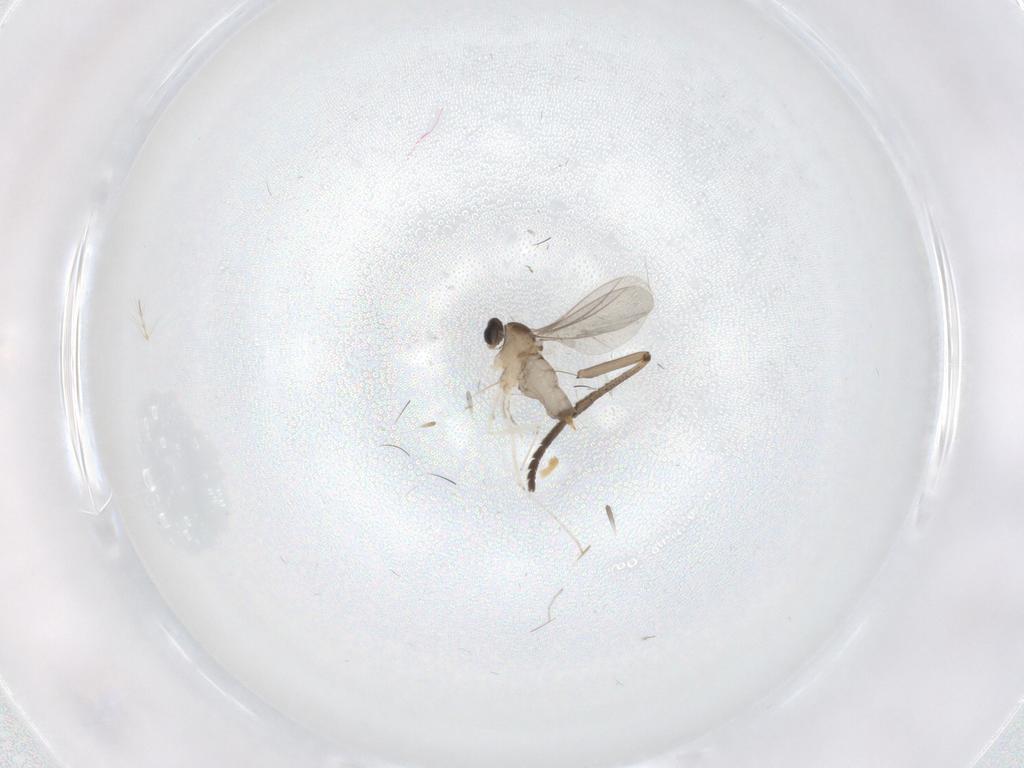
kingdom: Animalia
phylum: Arthropoda
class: Insecta
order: Diptera
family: Cecidomyiidae
